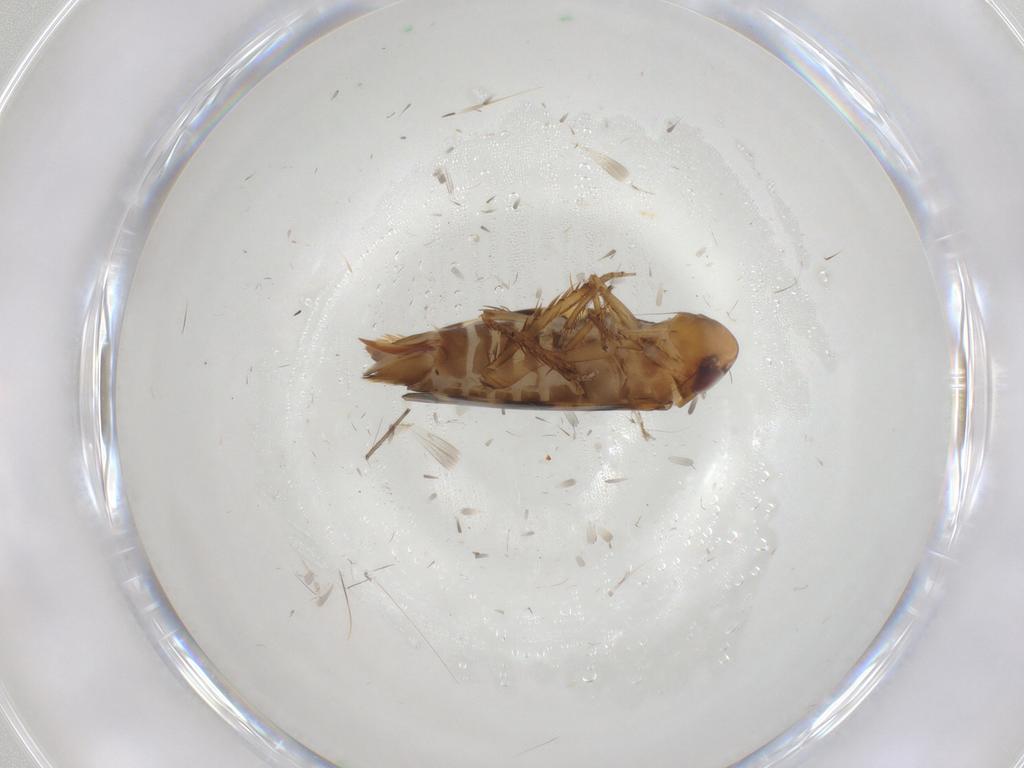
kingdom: Animalia
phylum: Arthropoda
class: Insecta
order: Hemiptera
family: Cicadellidae
